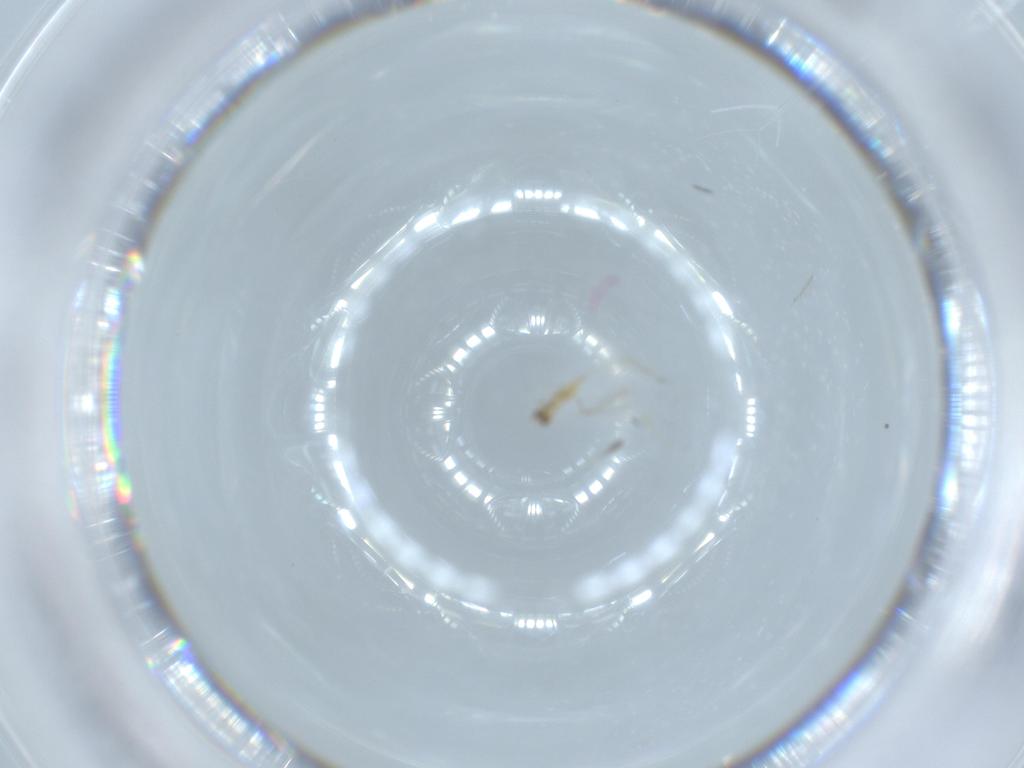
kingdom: Animalia
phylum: Arthropoda
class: Insecta
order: Hymenoptera
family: Mymaridae
